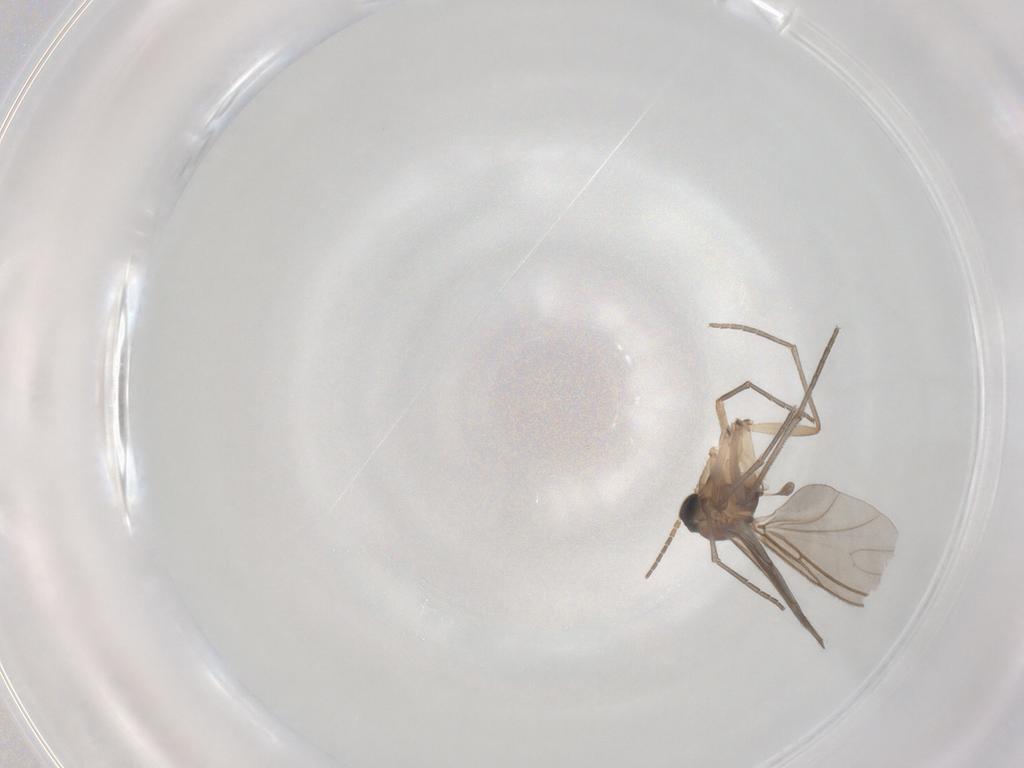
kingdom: Animalia
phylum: Arthropoda
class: Insecta
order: Diptera
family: Sciaridae
